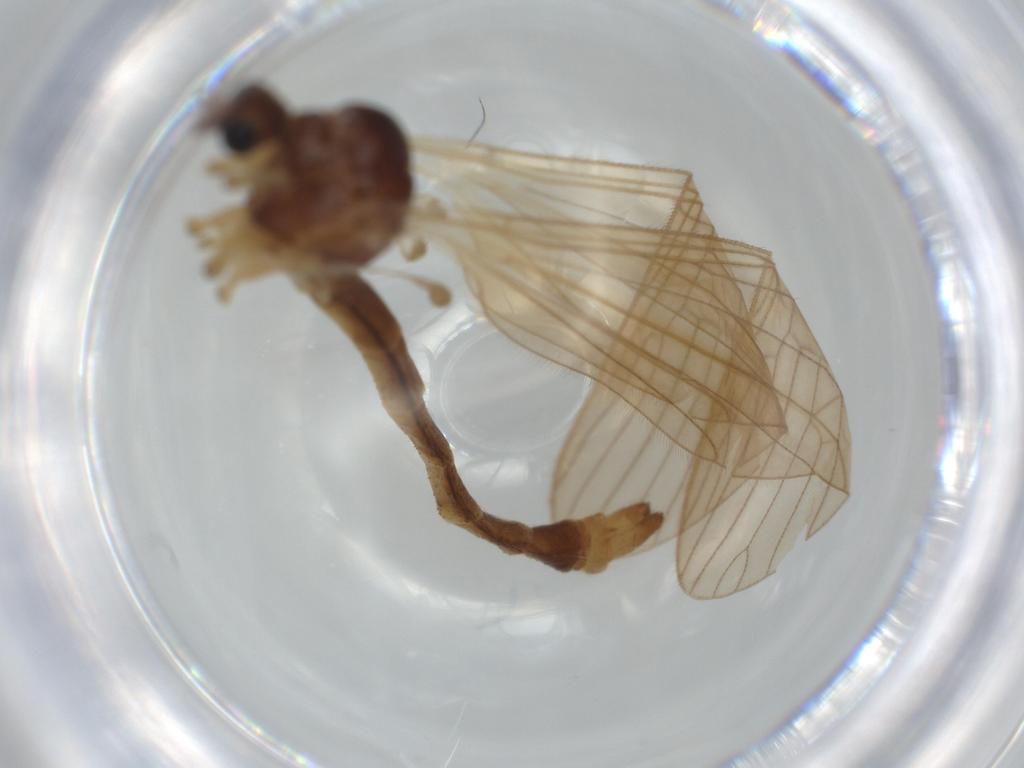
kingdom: Animalia
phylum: Arthropoda
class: Insecta
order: Diptera
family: Limoniidae
